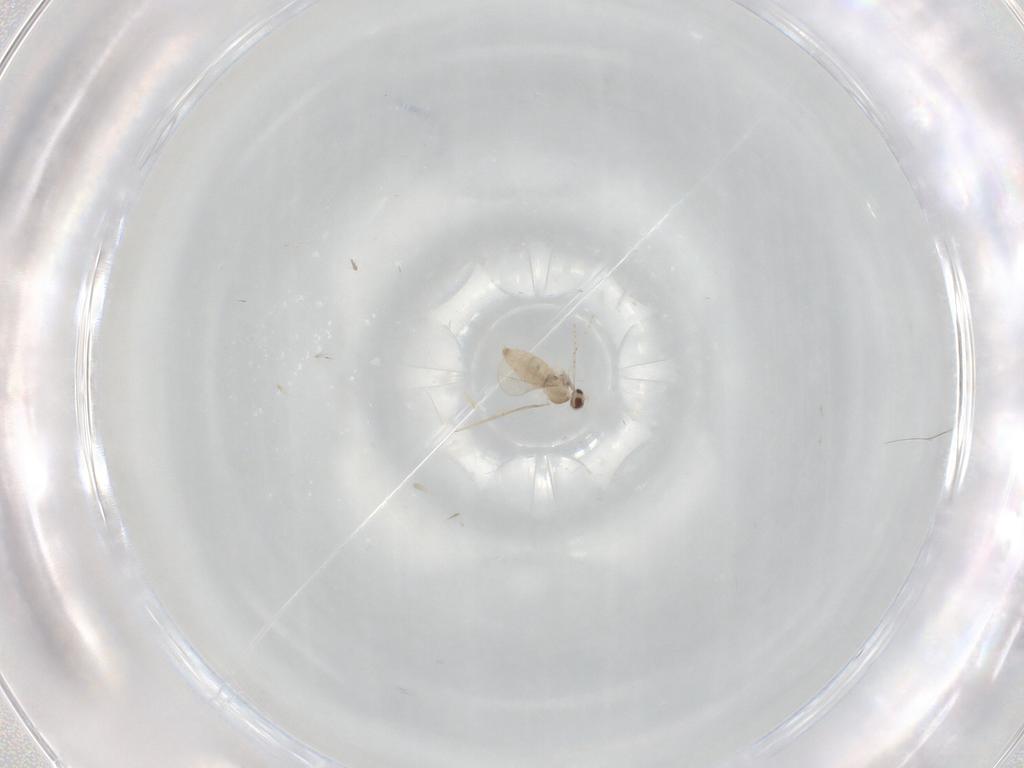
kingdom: Animalia
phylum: Arthropoda
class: Insecta
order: Diptera
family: Cecidomyiidae
